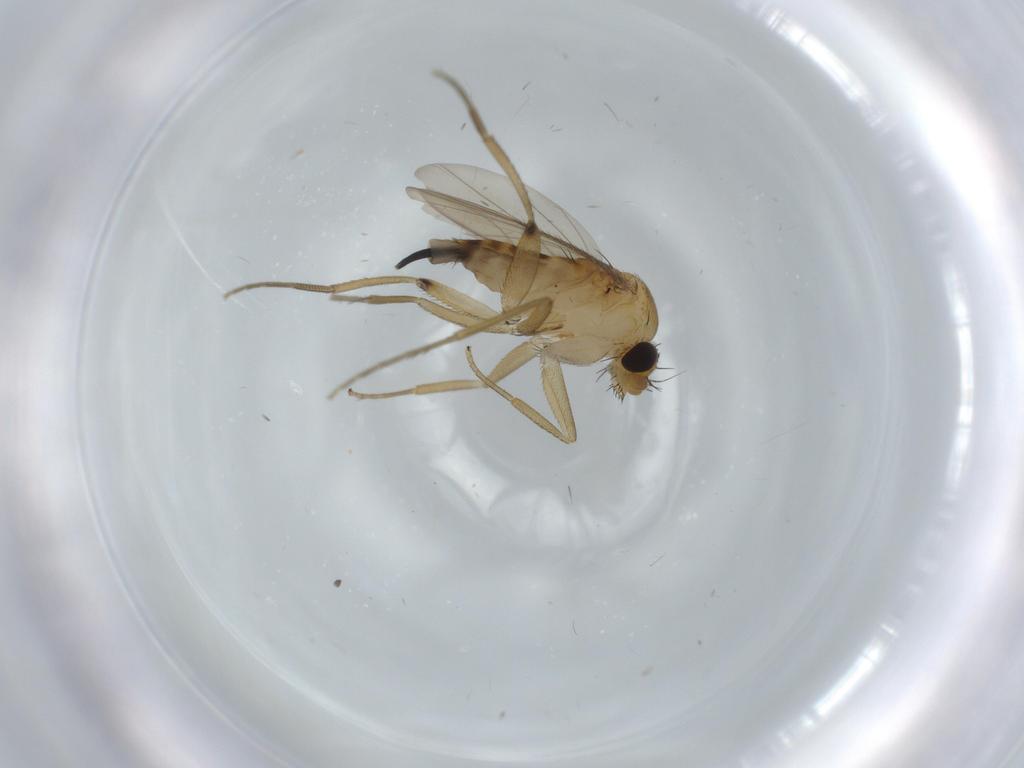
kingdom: Animalia
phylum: Arthropoda
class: Insecta
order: Diptera
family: Phoridae
